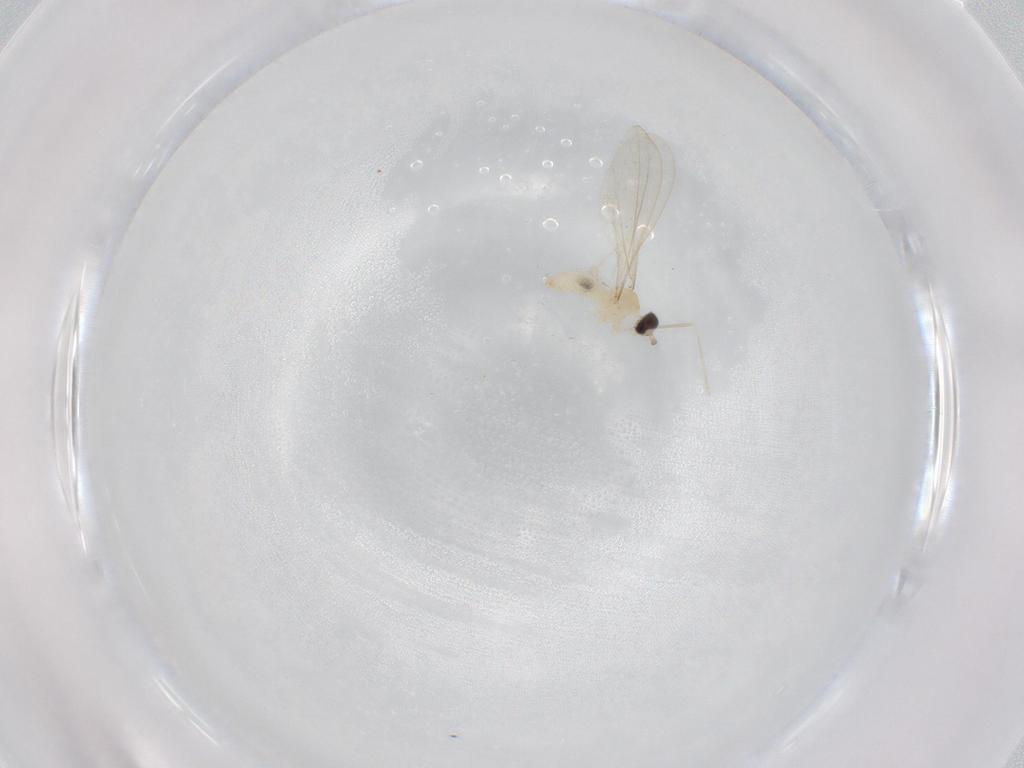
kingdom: Animalia
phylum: Arthropoda
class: Insecta
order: Diptera
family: Cecidomyiidae
